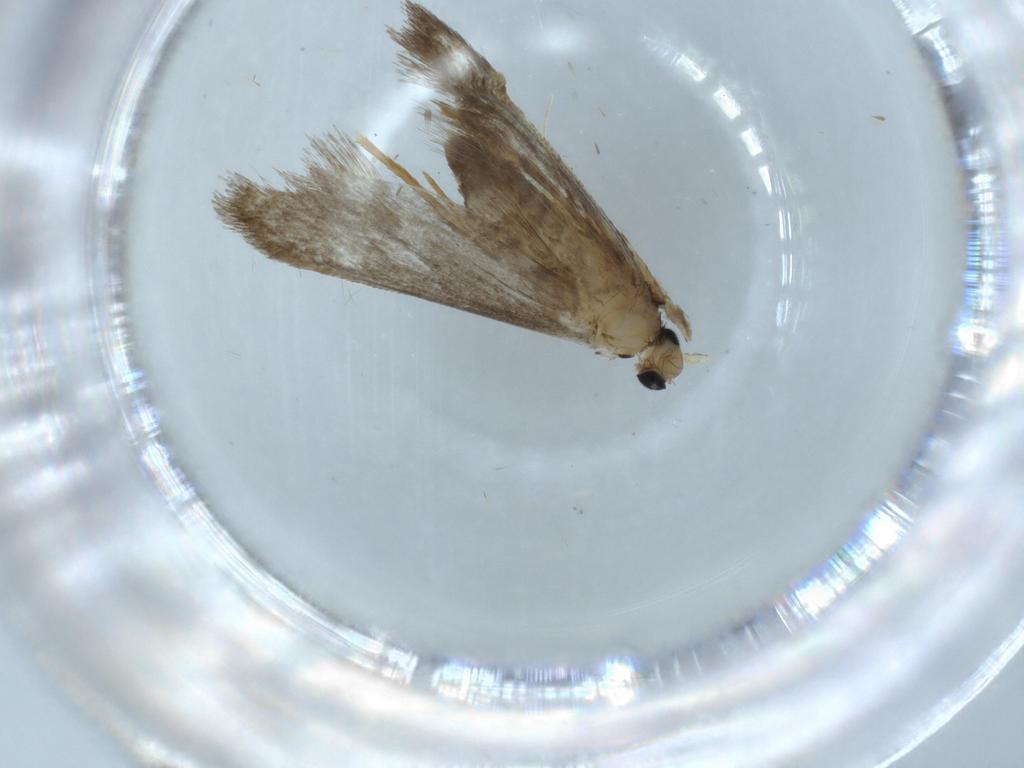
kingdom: Animalia
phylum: Arthropoda
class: Insecta
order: Lepidoptera
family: Tineidae
